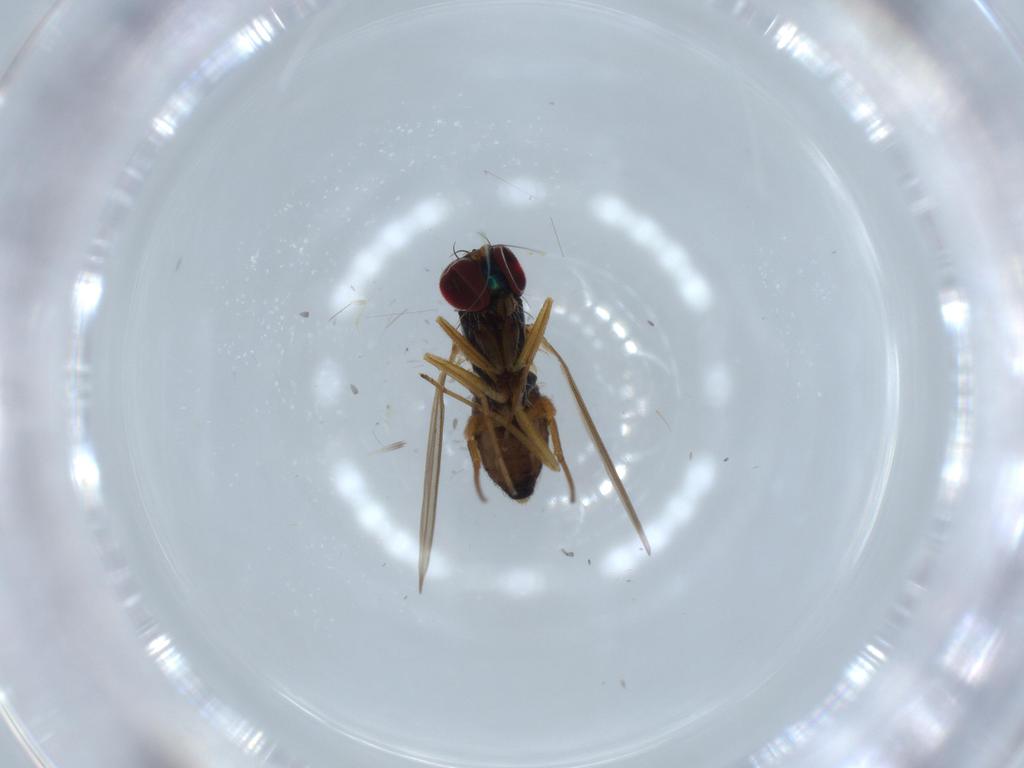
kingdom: Animalia
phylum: Arthropoda
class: Insecta
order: Diptera
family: Dolichopodidae
